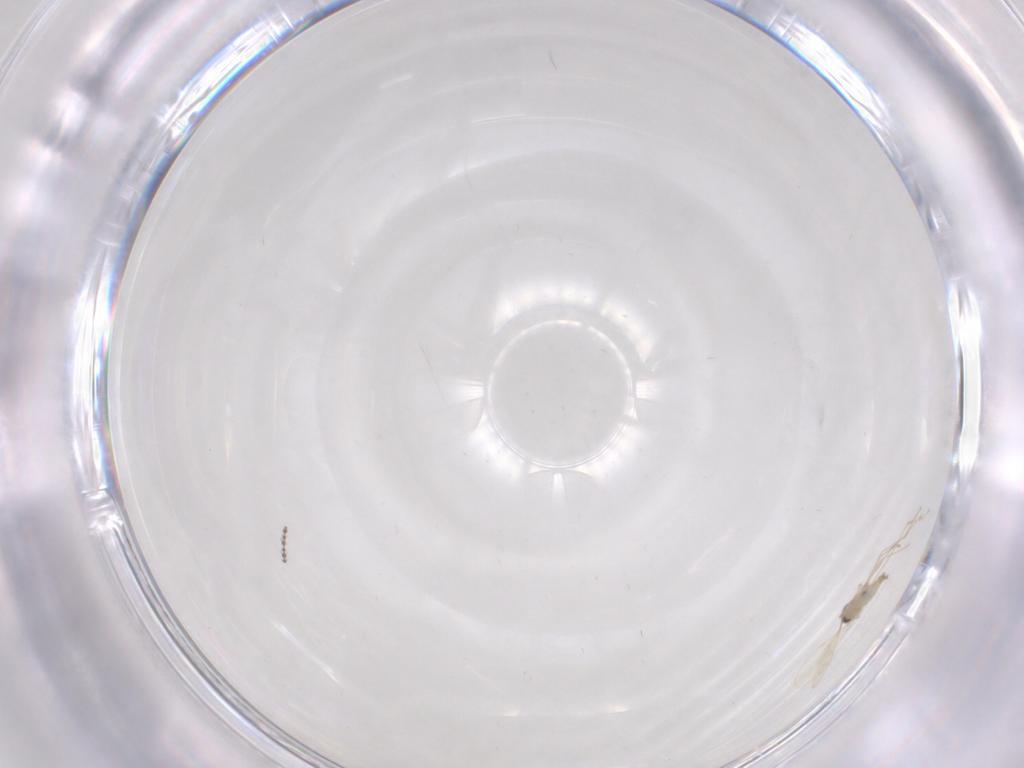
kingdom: Animalia
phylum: Arthropoda
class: Insecta
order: Diptera
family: Cecidomyiidae
